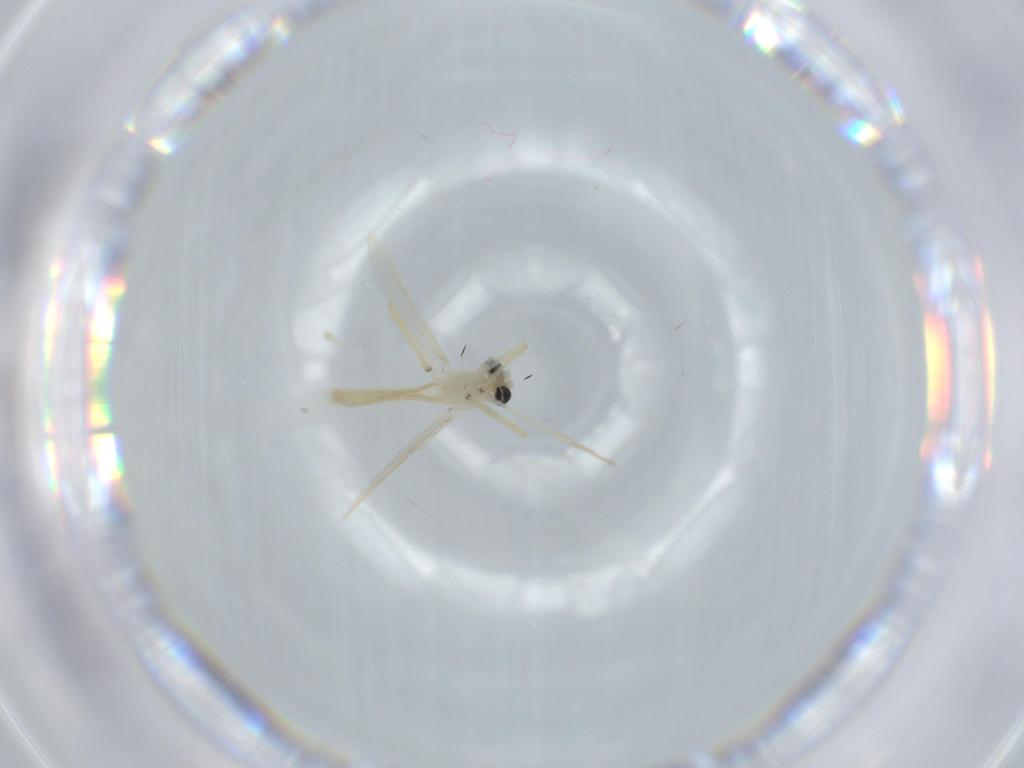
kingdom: Animalia
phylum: Arthropoda
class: Insecta
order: Diptera
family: Chironomidae
